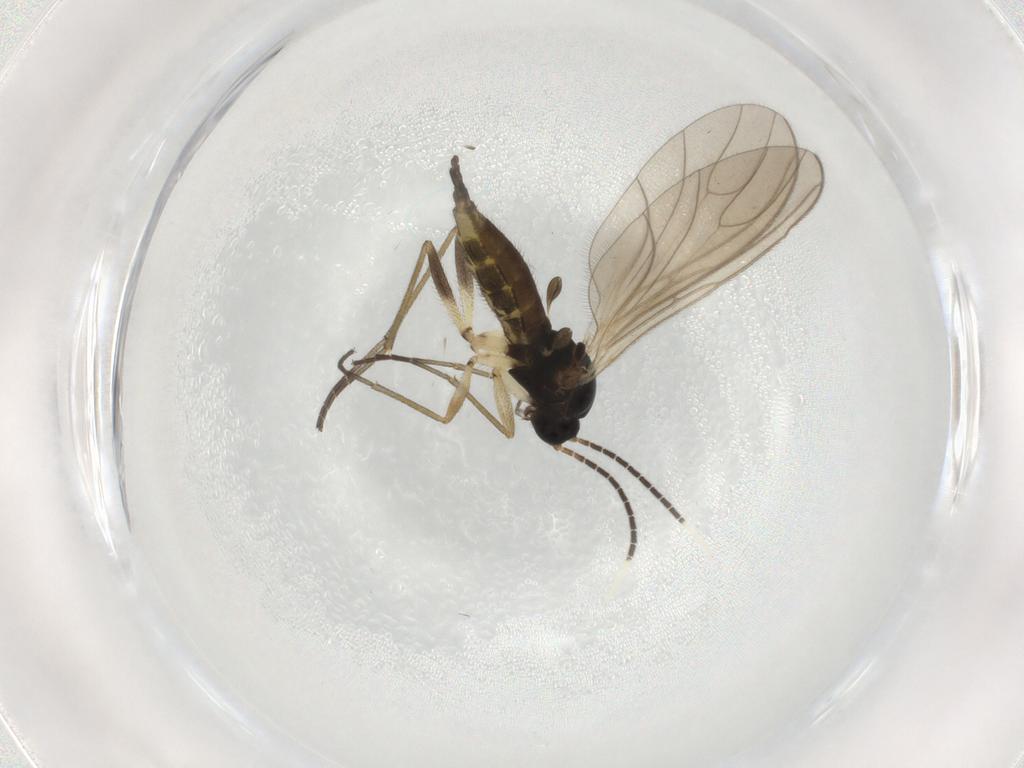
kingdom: Animalia
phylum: Arthropoda
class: Insecta
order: Diptera
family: Sciaridae
